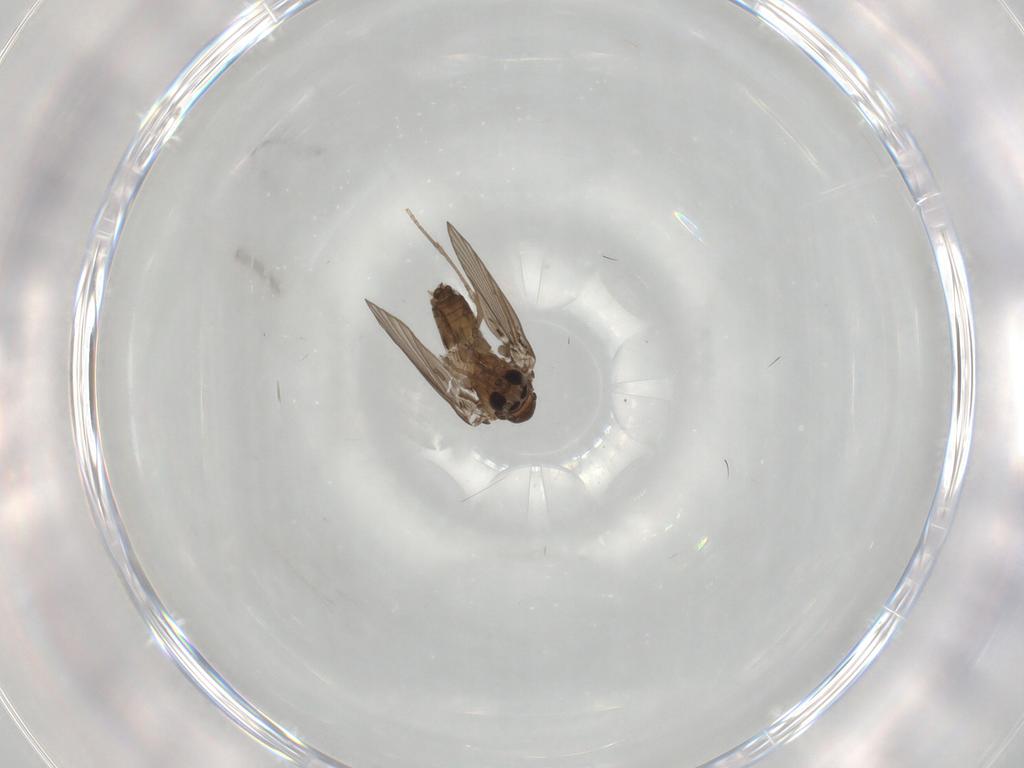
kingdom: Animalia
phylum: Arthropoda
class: Insecta
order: Diptera
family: Psychodidae
